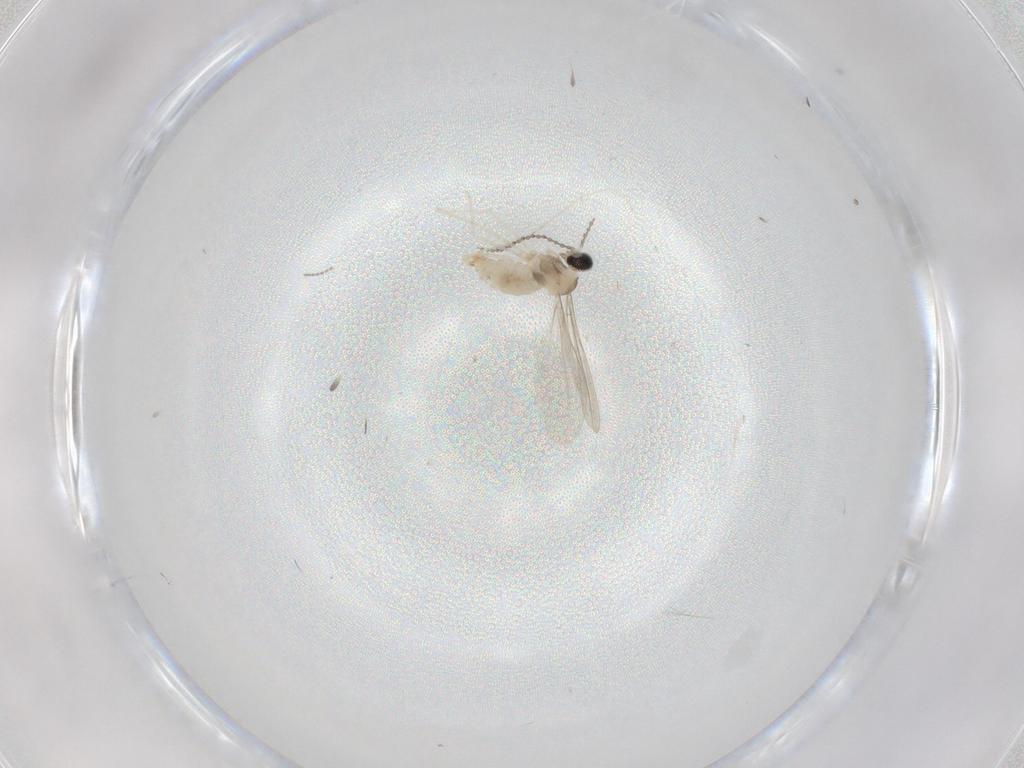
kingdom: Animalia
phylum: Arthropoda
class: Insecta
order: Diptera
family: Cecidomyiidae
